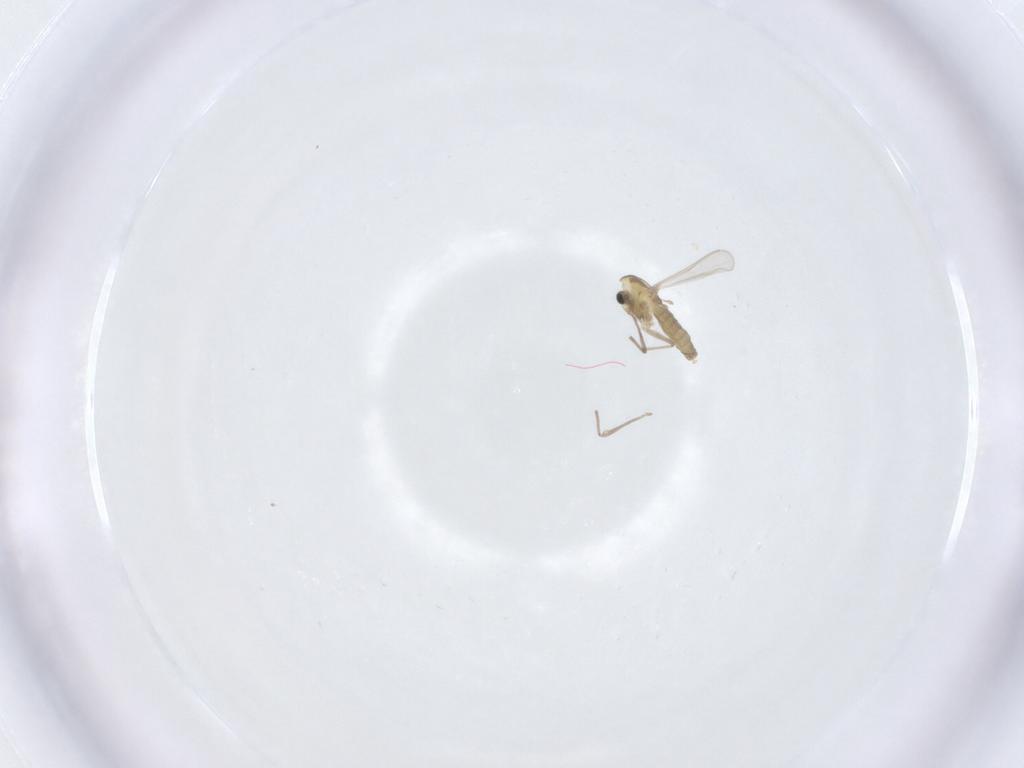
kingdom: Animalia
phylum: Arthropoda
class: Insecta
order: Diptera
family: Chironomidae
